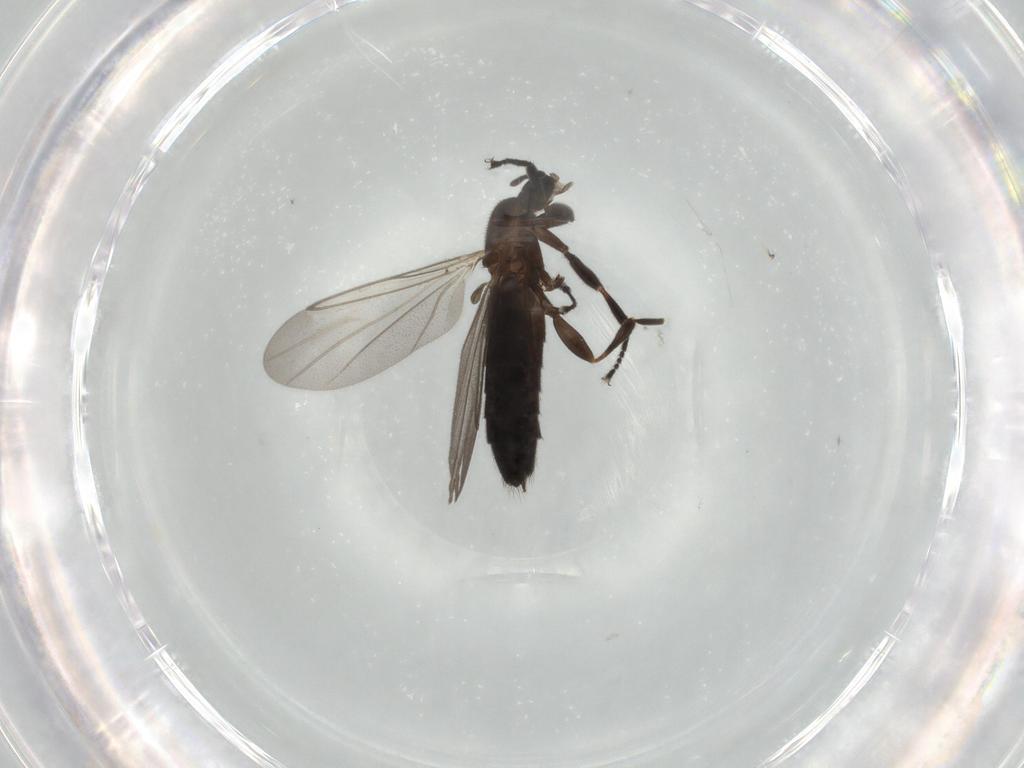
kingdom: Animalia
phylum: Arthropoda
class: Insecta
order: Diptera
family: Scatopsidae
